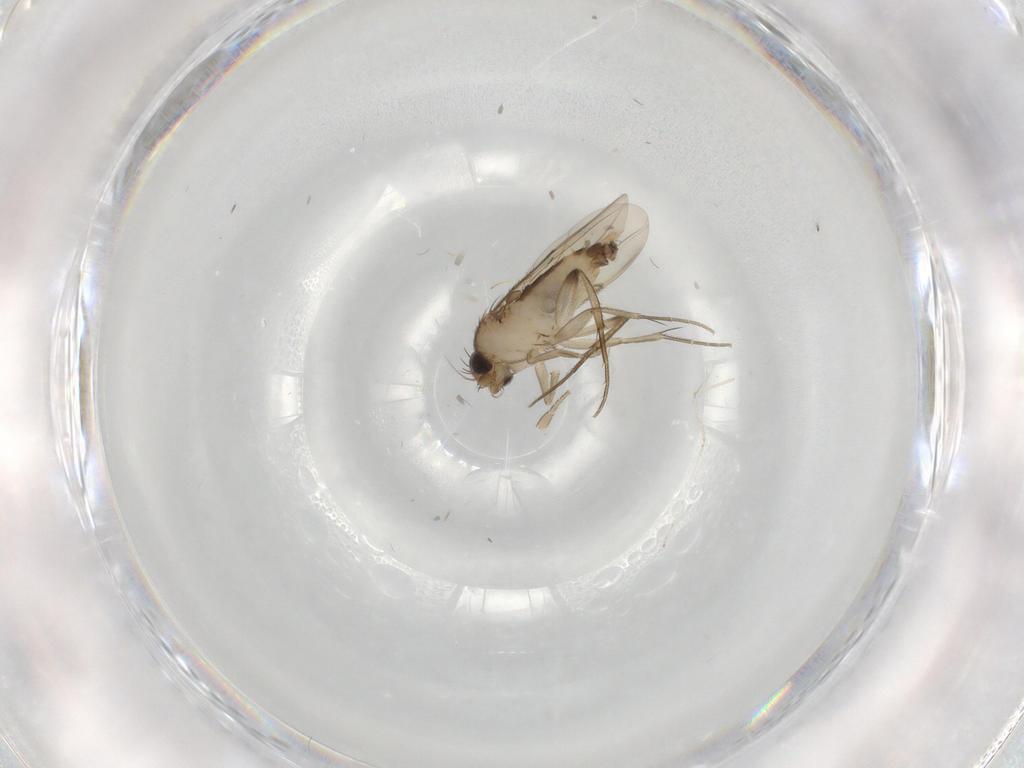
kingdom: Animalia
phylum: Arthropoda
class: Insecta
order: Diptera
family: Phoridae
